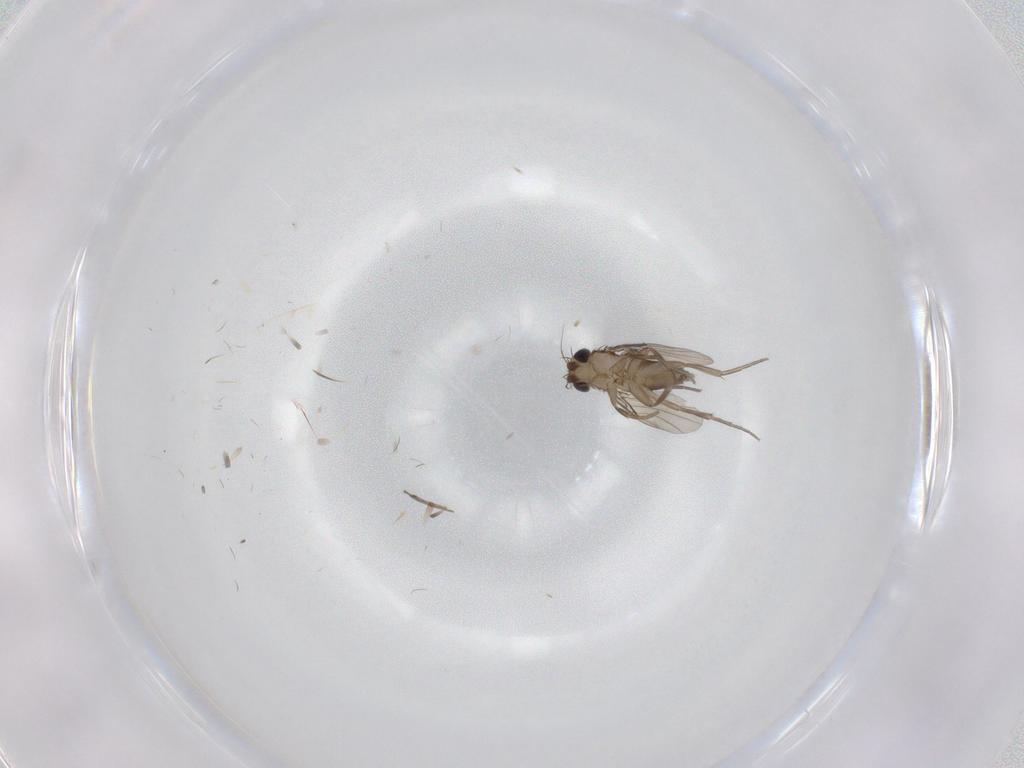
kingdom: Animalia
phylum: Arthropoda
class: Insecta
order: Diptera
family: Phoridae
